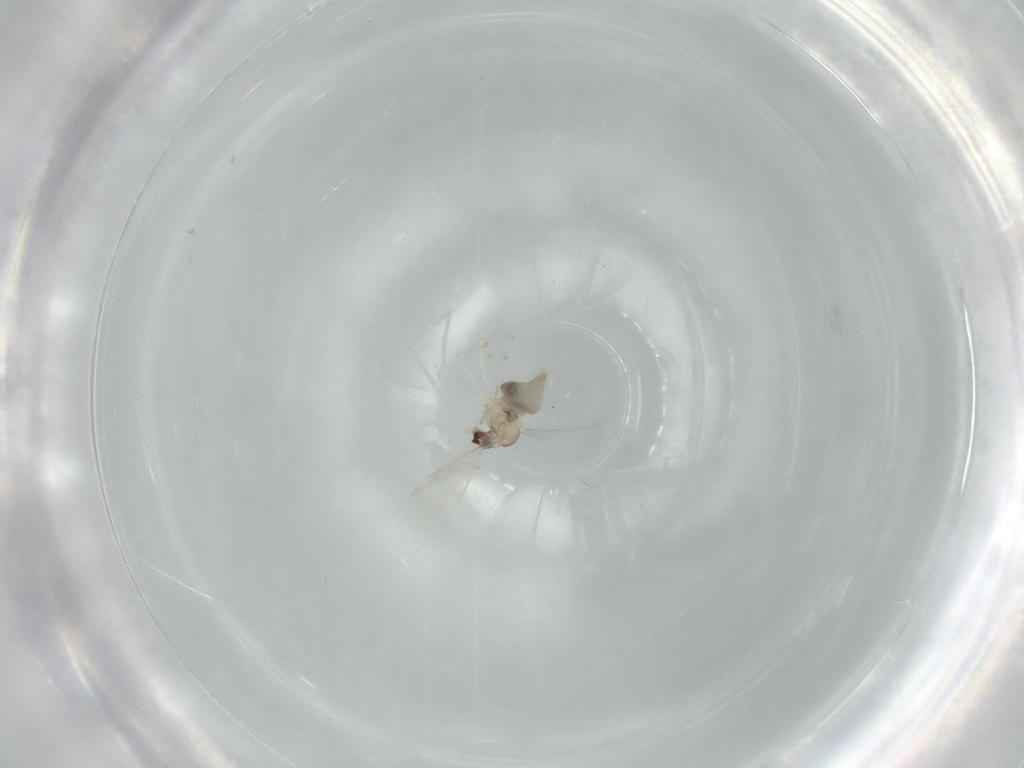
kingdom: Animalia
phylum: Arthropoda
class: Insecta
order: Diptera
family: Cecidomyiidae
